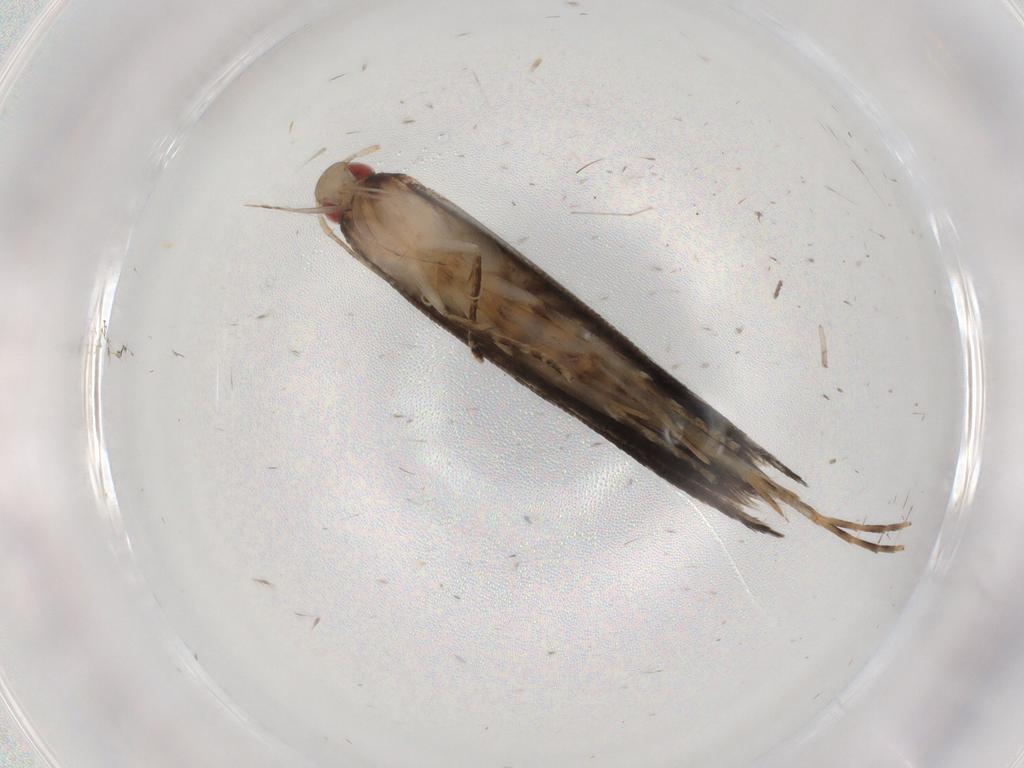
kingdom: Animalia
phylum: Arthropoda
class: Insecta
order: Lepidoptera
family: Gelechiidae
